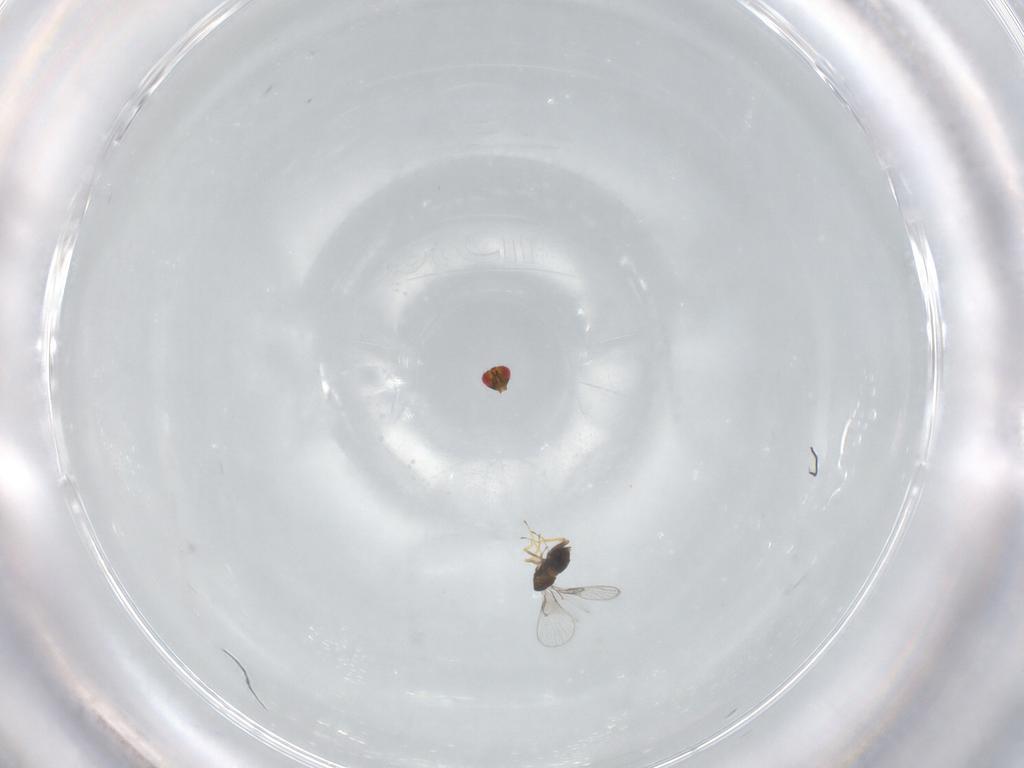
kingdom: Animalia
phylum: Arthropoda
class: Insecta
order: Hymenoptera
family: Trichogrammatidae
